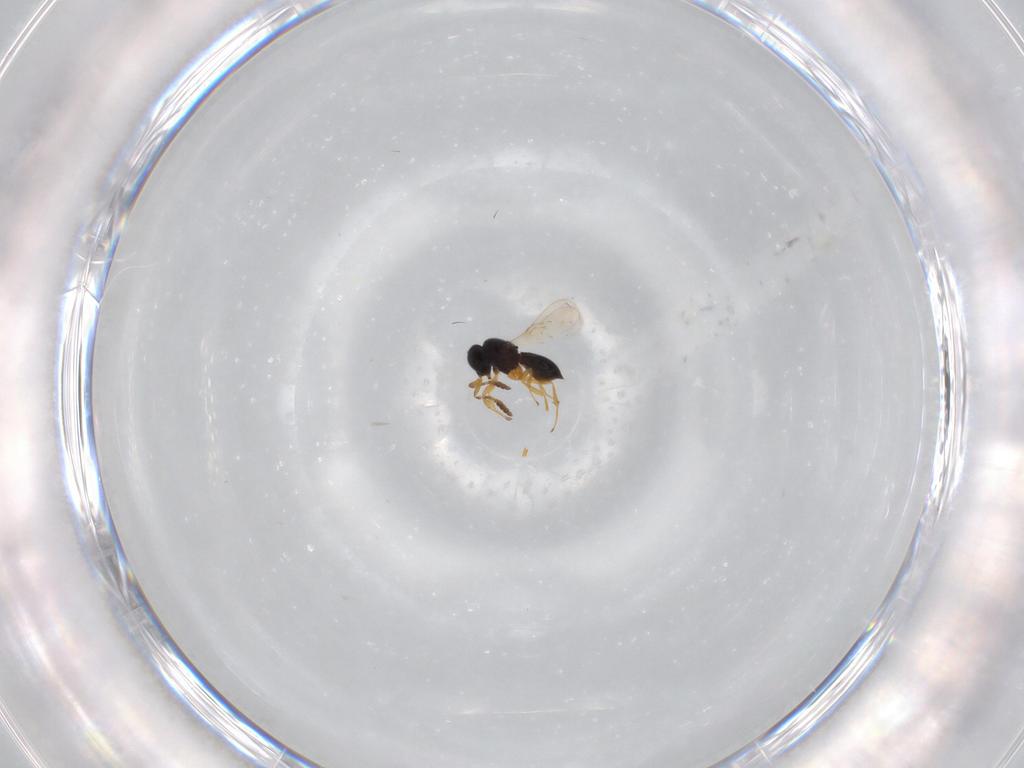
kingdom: Animalia
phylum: Arthropoda
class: Insecta
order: Hymenoptera
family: Scelionidae
